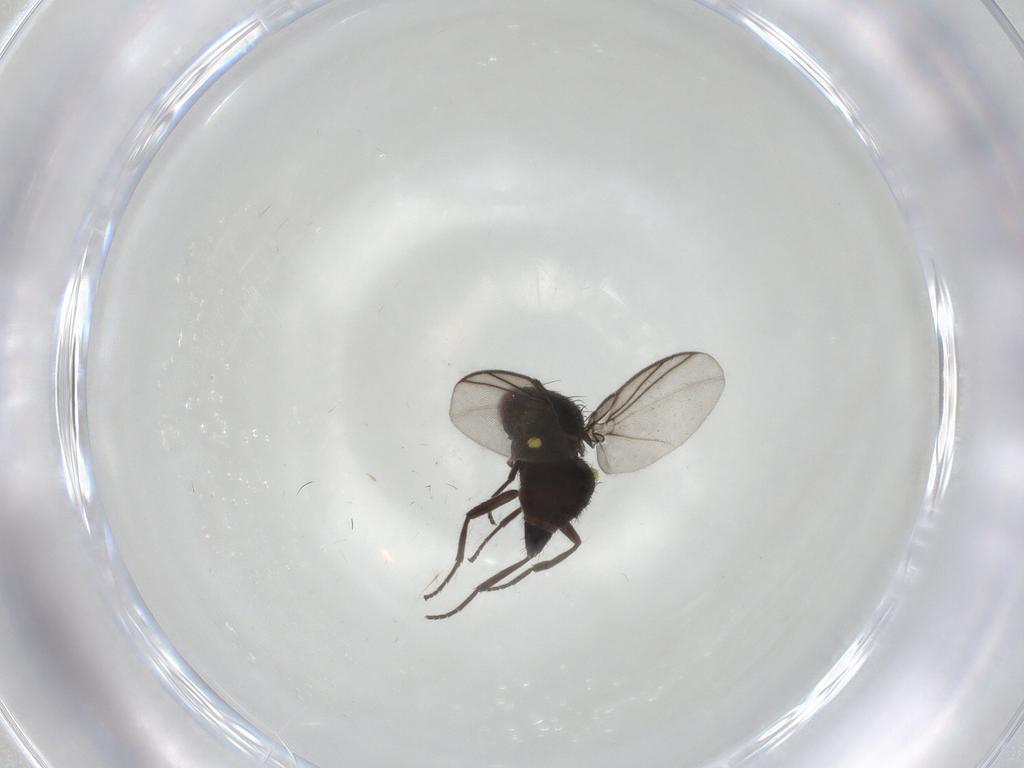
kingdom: Animalia
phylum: Arthropoda
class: Insecta
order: Diptera
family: Agromyzidae
